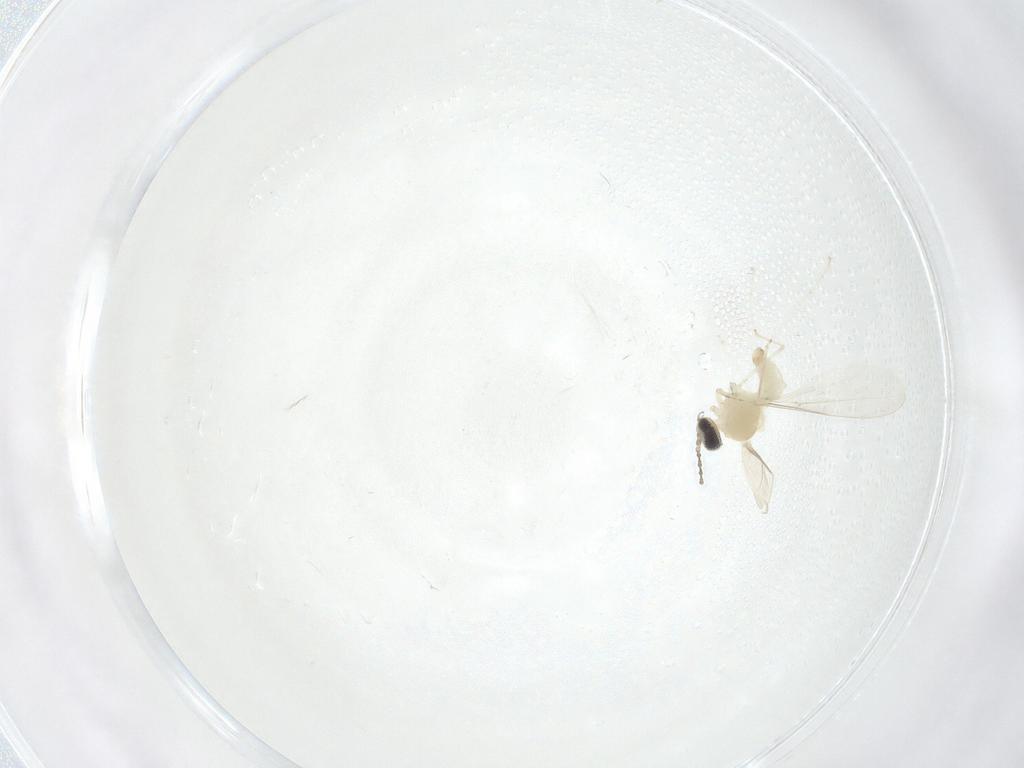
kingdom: Animalia
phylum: Arthropoda
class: Insecta
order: Diptera
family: Cecidomyiidae
